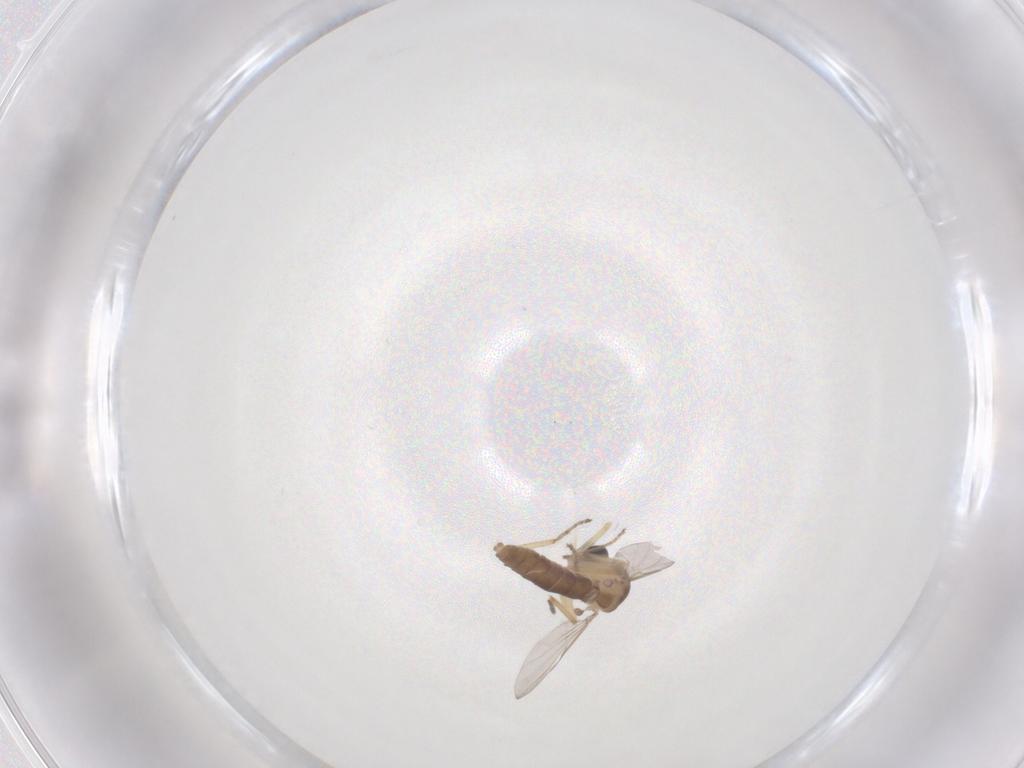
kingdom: Animalia
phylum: Arthropoda
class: Insecta
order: Diptera
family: Ceratopogonidae
